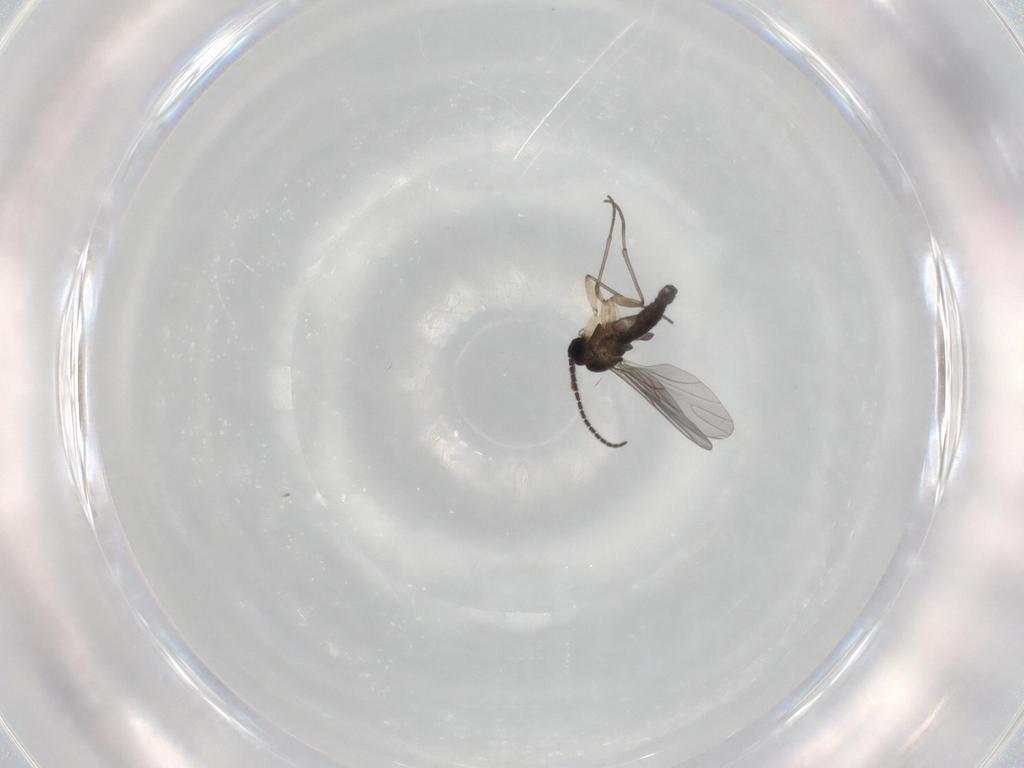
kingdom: Animalia
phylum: Arthropoda
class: Insecta
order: Diptera
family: Sciaridae
